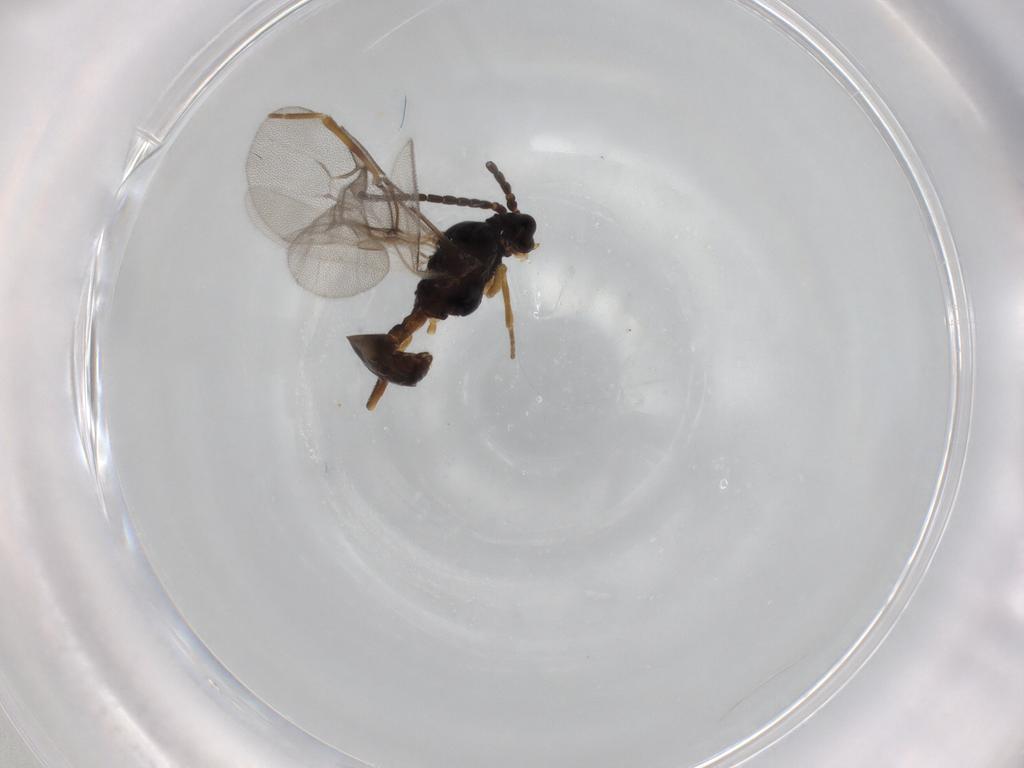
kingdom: Animalia
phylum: Arthropoda
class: Insecta
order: Hymenoptera
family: Braconidae
